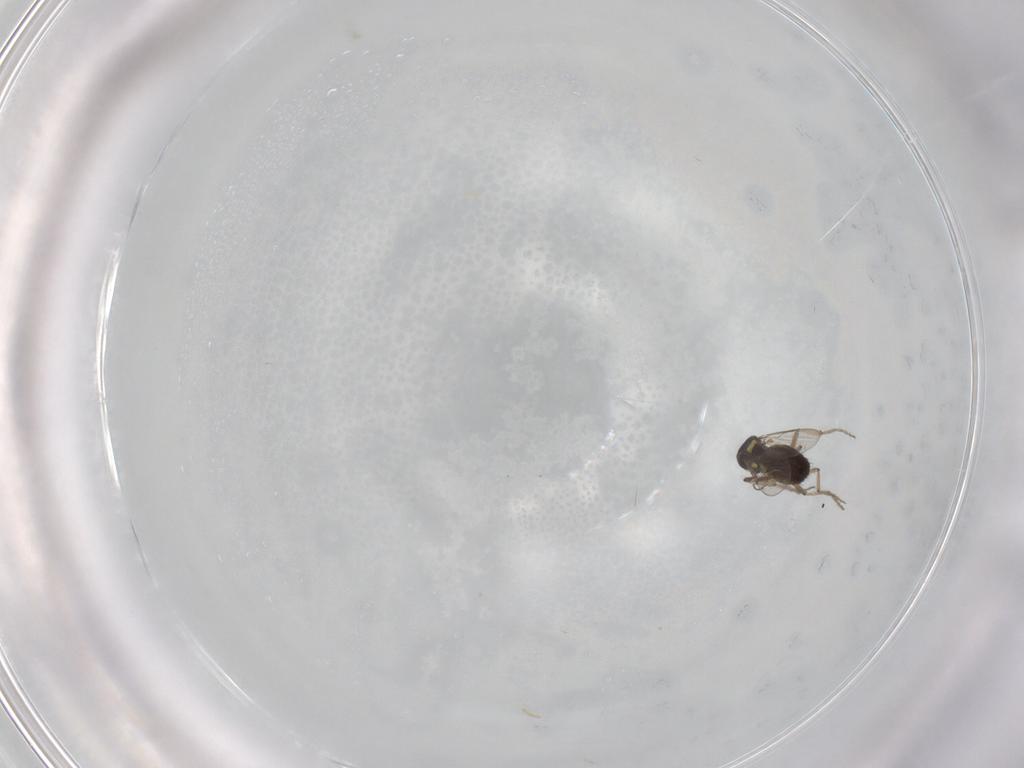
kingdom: Animalia
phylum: Arthropoda
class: Insecta
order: Diptera
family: Ceratopogonidae
